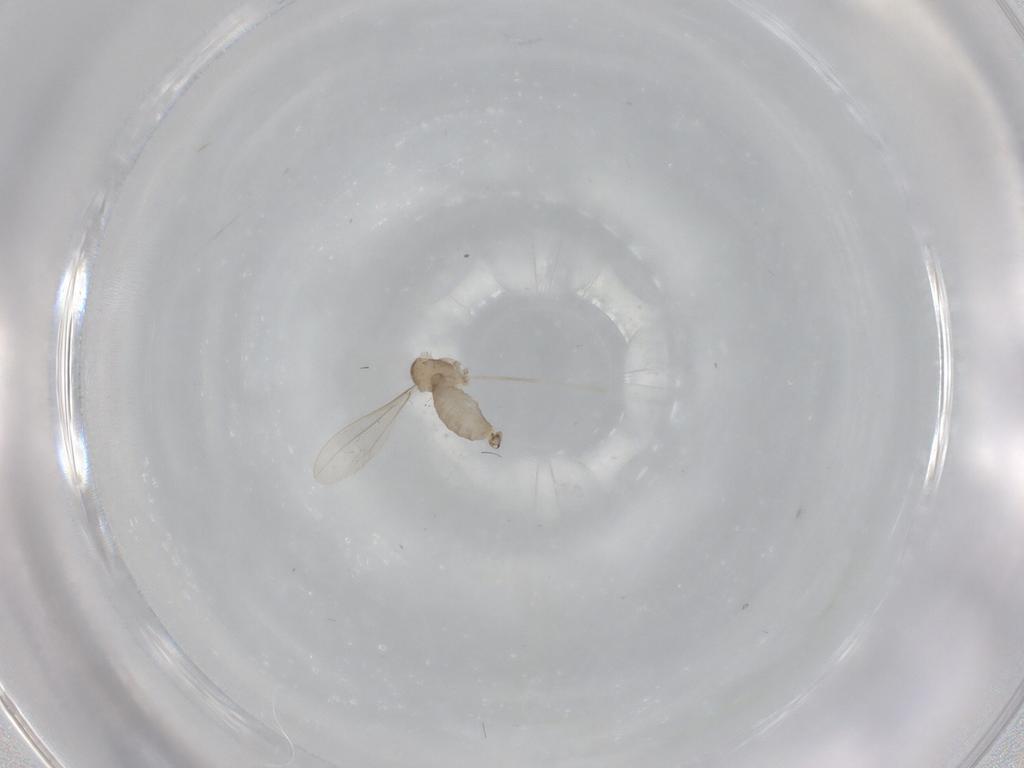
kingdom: Animalia
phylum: Arthropoda
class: Insecta
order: Diptera
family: Cecidomyiidae
